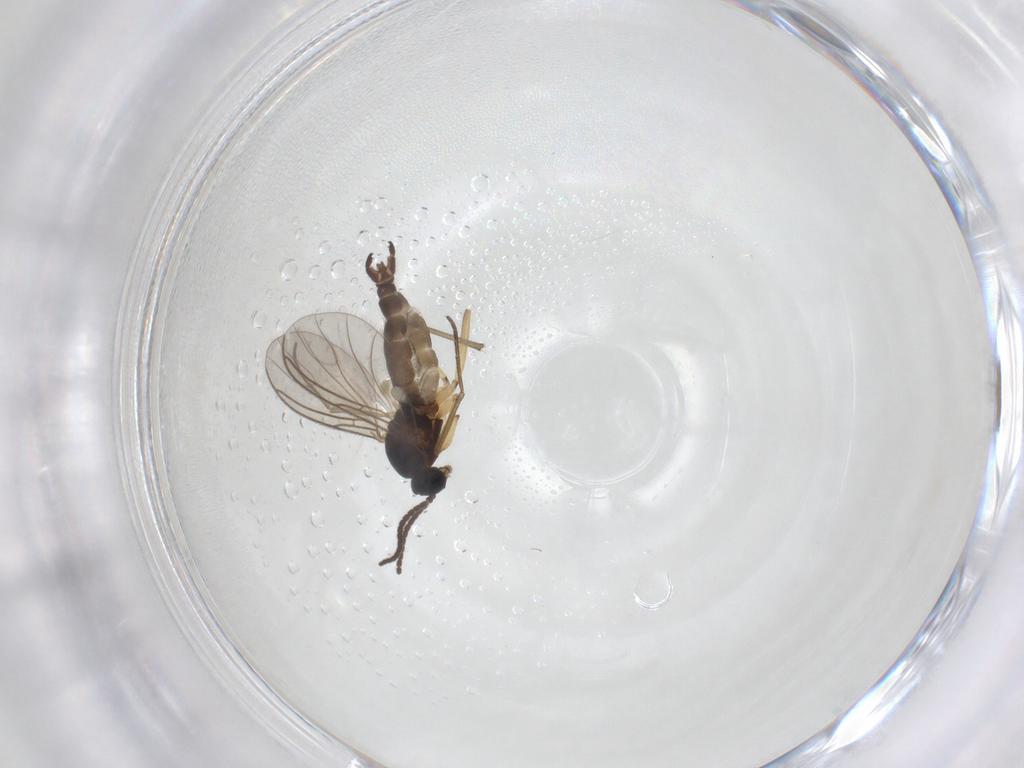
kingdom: Animalia
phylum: Arthropoda
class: Insecta
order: Diptera
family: Sciaridae
